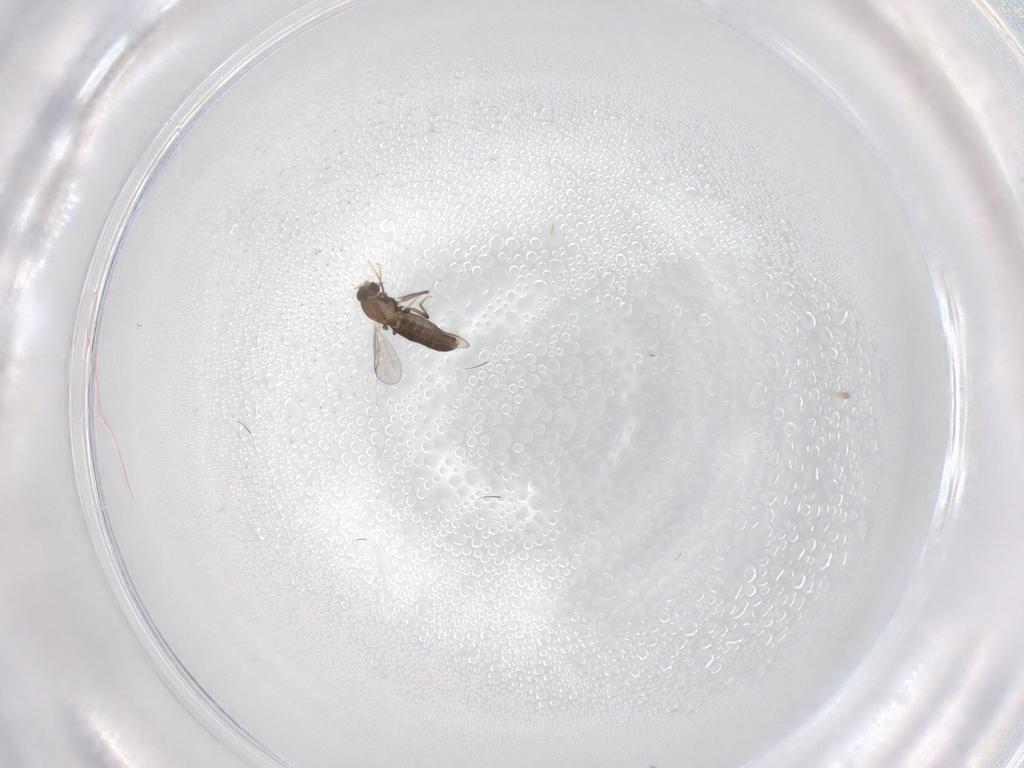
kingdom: Animalia
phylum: Arthropoda
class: Insecta
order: Diptera
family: Chironomidae
